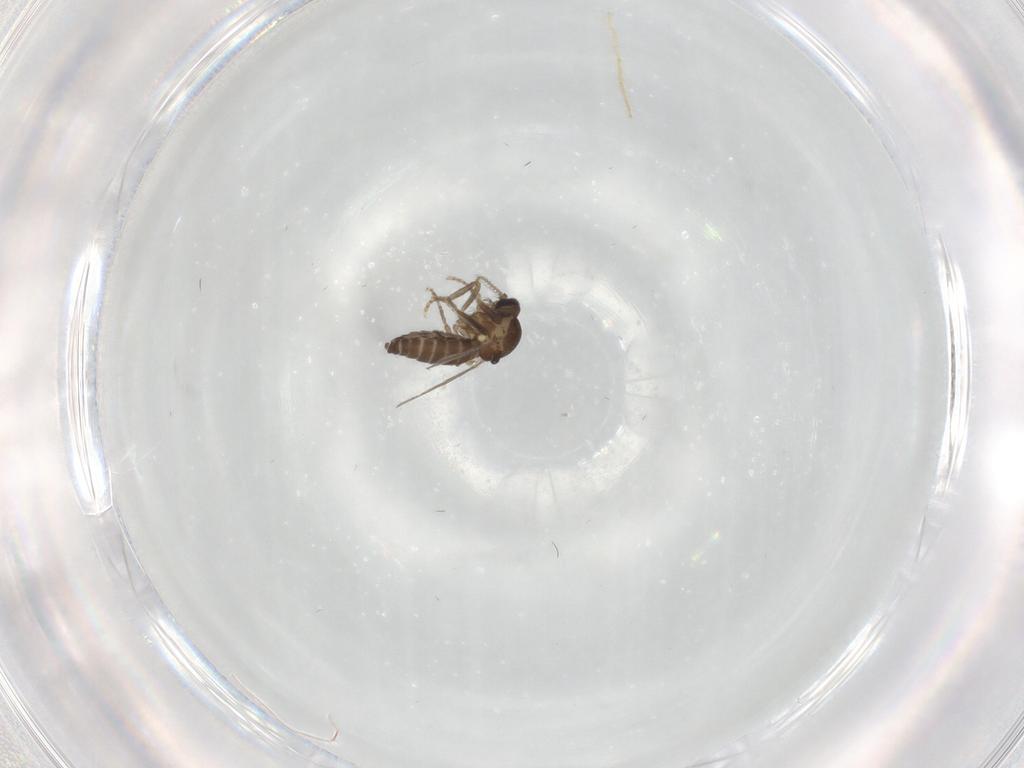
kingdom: Animalia
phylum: Arthropoda
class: Insecta
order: Diptera
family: Ceratopogonidae
